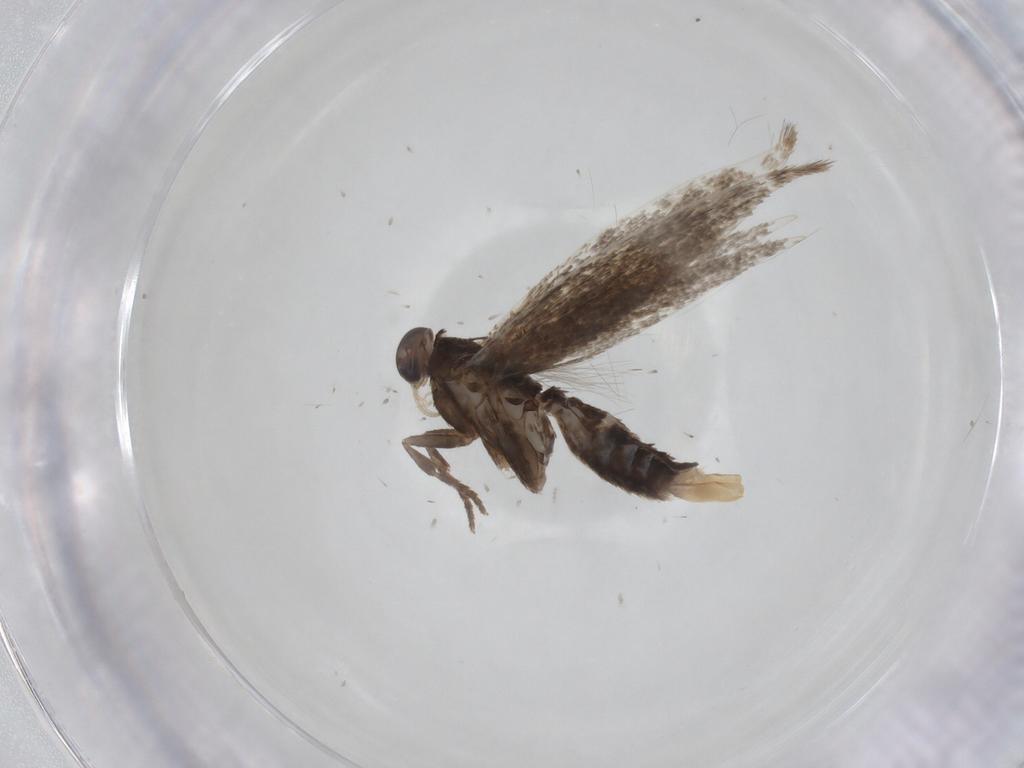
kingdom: Animalia
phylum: Arthropoda
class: Insecta
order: Lepidoptera
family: Elachistidae
